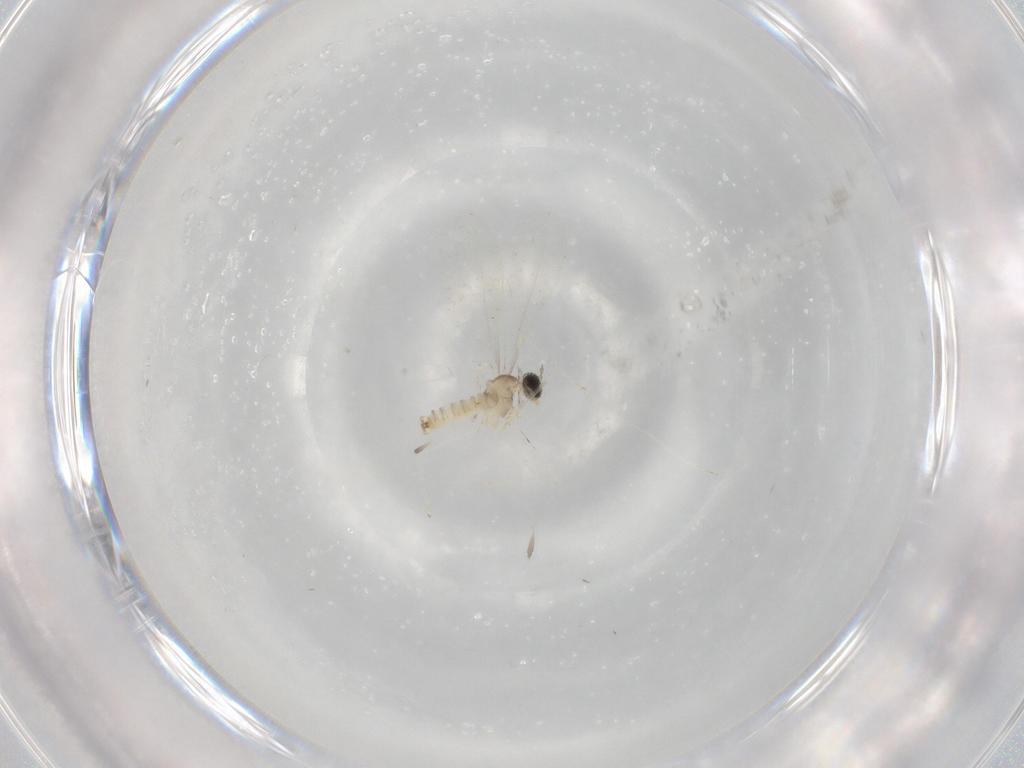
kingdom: Animalia
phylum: Arthropoda
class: Insecta
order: Diptera
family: Cecidomyiidae
